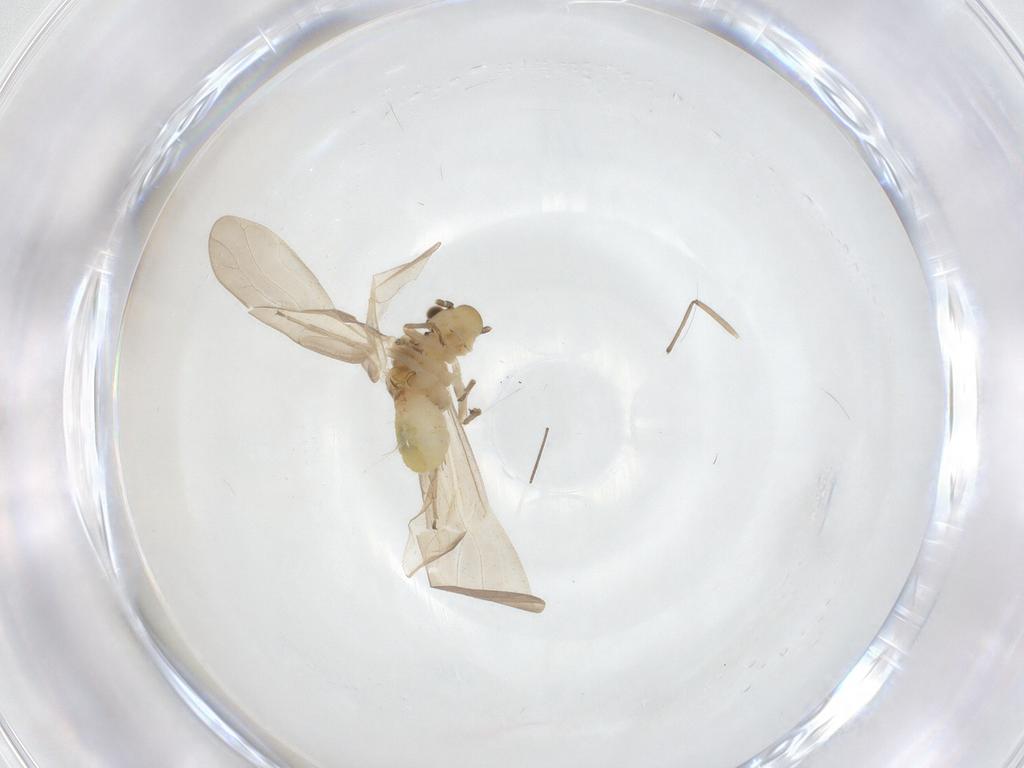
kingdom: Animalia
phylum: Arthropoda
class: Insecta
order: Psocodea
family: Caeciliusidae
